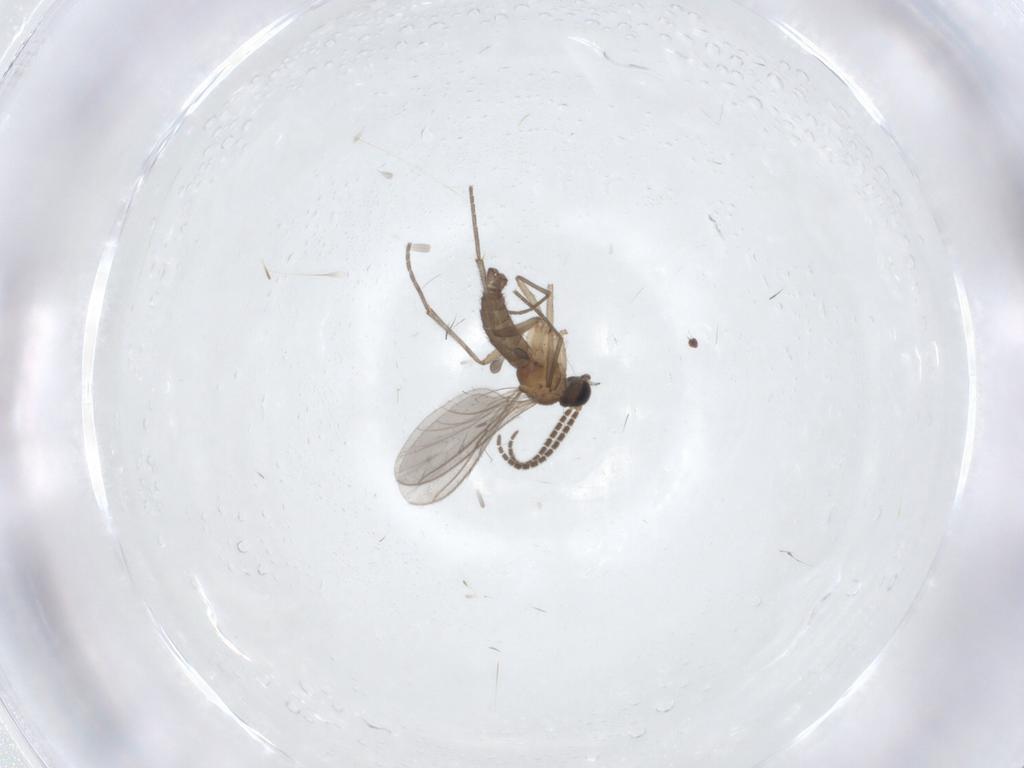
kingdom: Animalia
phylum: Arthropoda
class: Insecta
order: Diptera
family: Sciaridae
